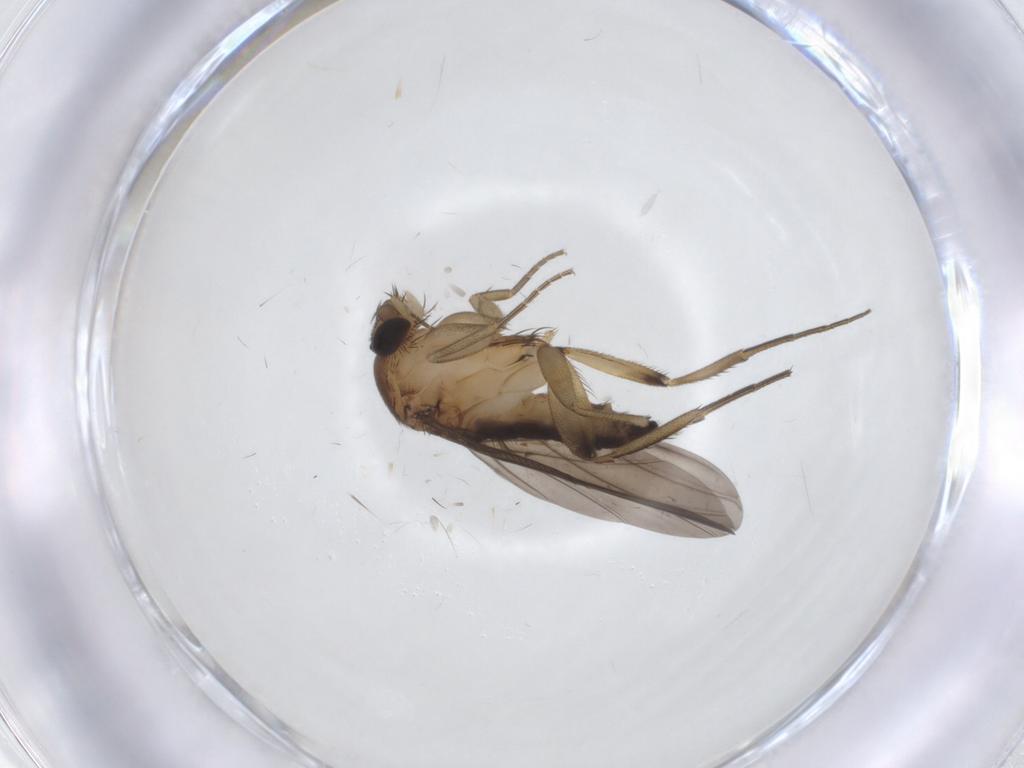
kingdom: Animalia
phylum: Arthropoda
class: Insecta
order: Diptera
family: Phoridae
